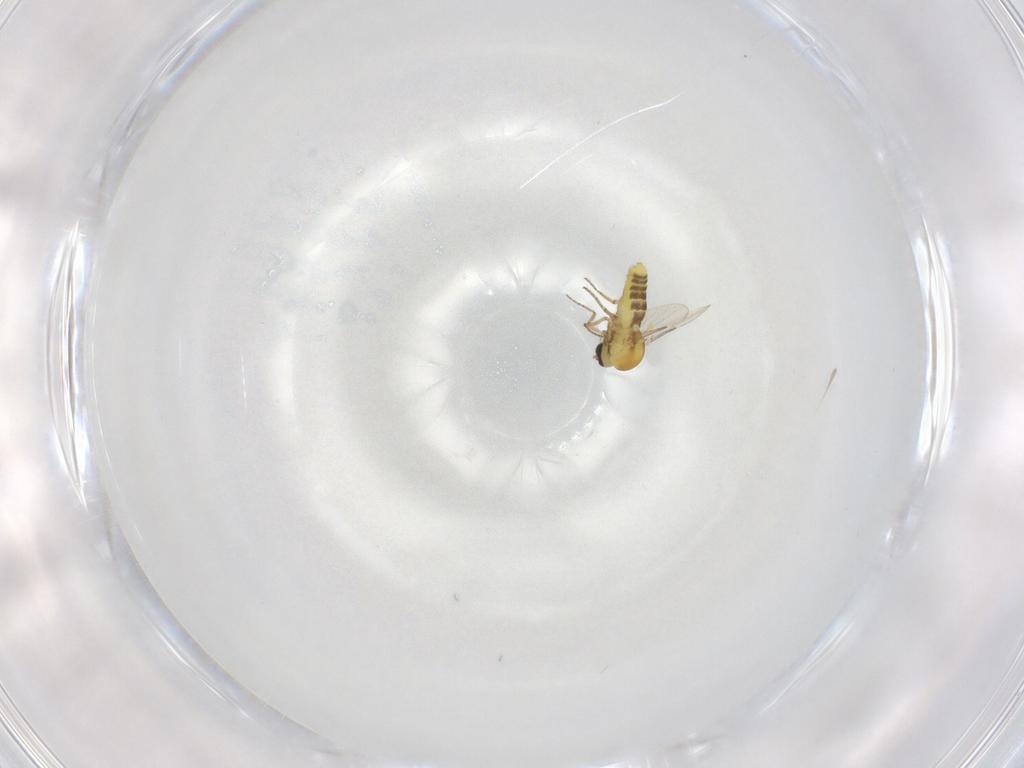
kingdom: Animalia
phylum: Arthropoda
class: Insecta
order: Diptera
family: Ceratopogonidae
